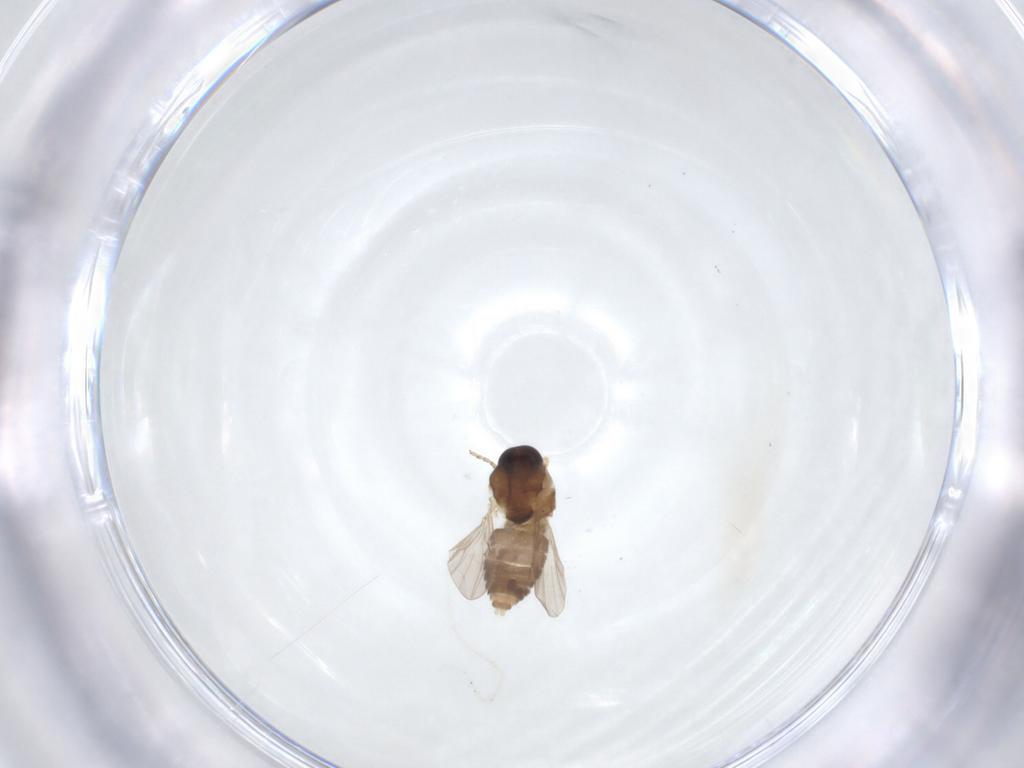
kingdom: Animalia
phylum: Arthropoda
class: Insecta
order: Diptera
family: Ceratopogonidae
